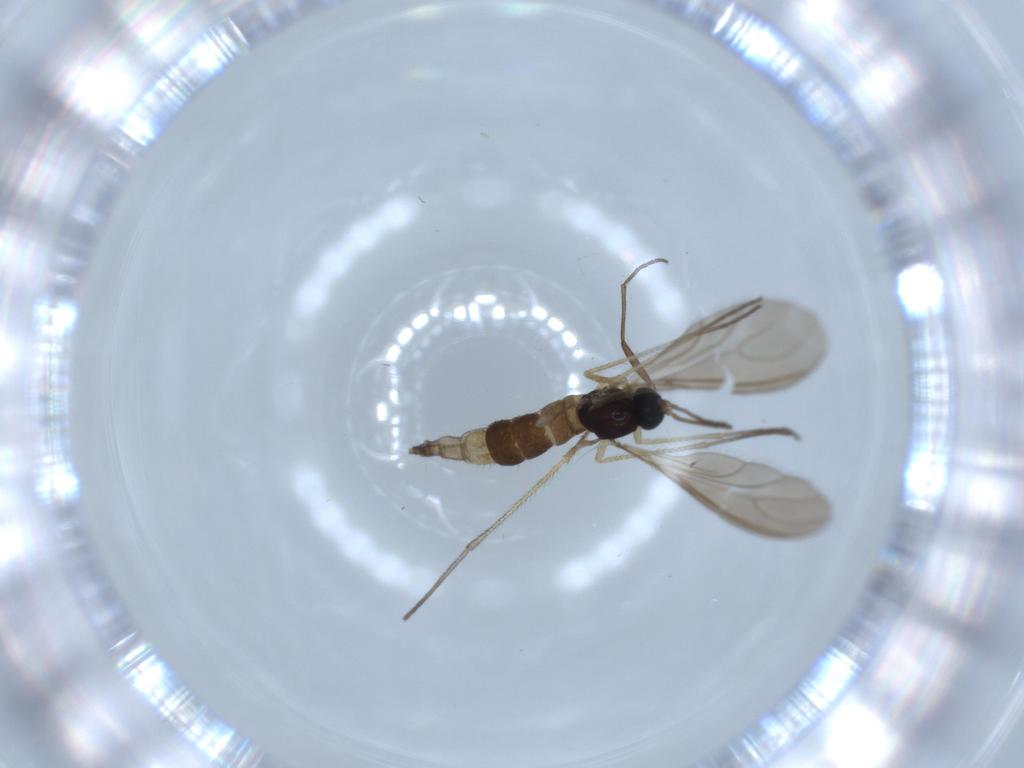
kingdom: Animalia
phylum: Arthropoda
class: Insecta
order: Diptera
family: Sciaridae
